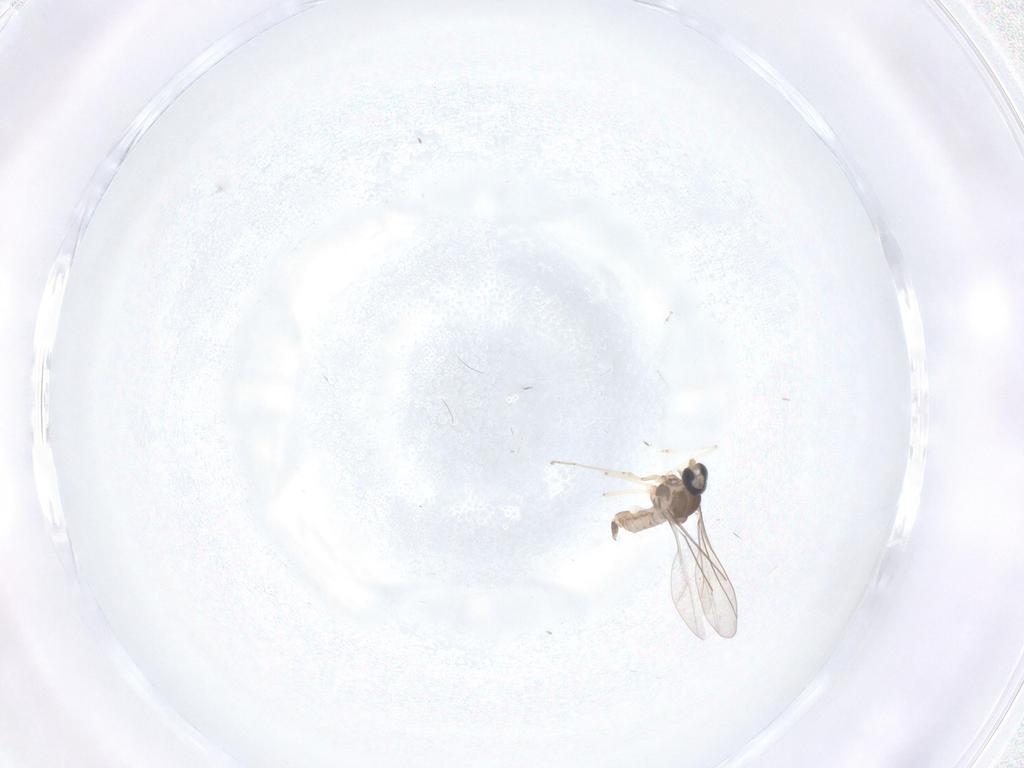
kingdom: Animalia
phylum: Arthropoda
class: Insecta
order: Diptera
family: Cecidomyiidae
